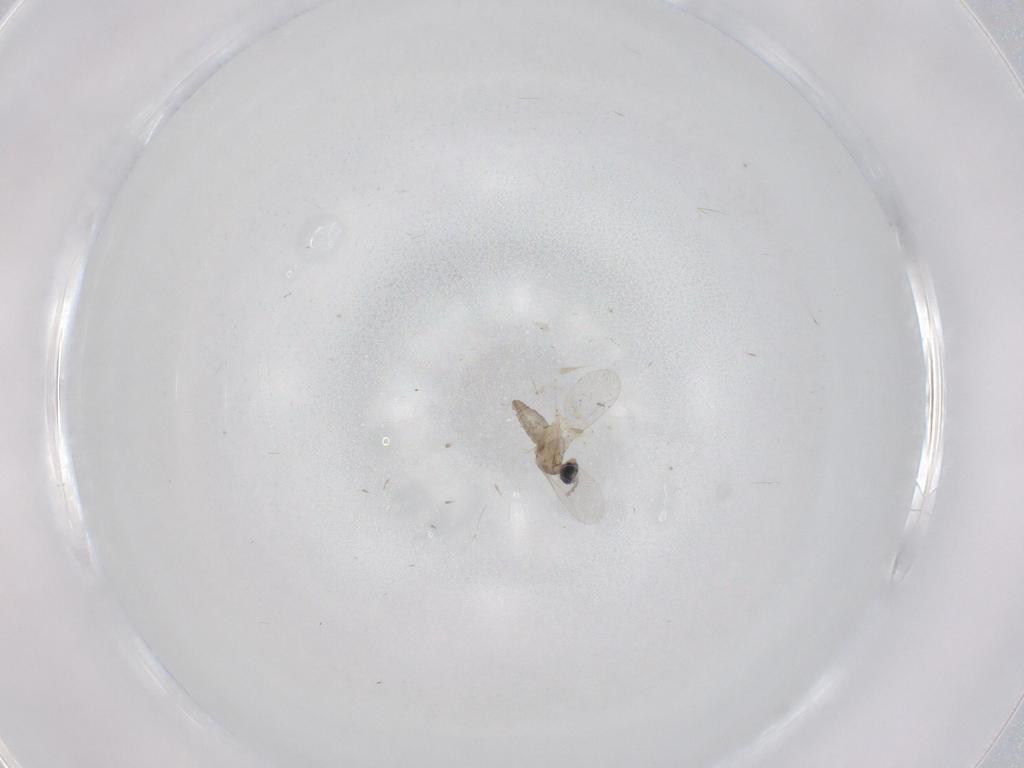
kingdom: Animalia
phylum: Arthropoda
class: Insecta
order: Diptera
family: Cecidomyiidae
